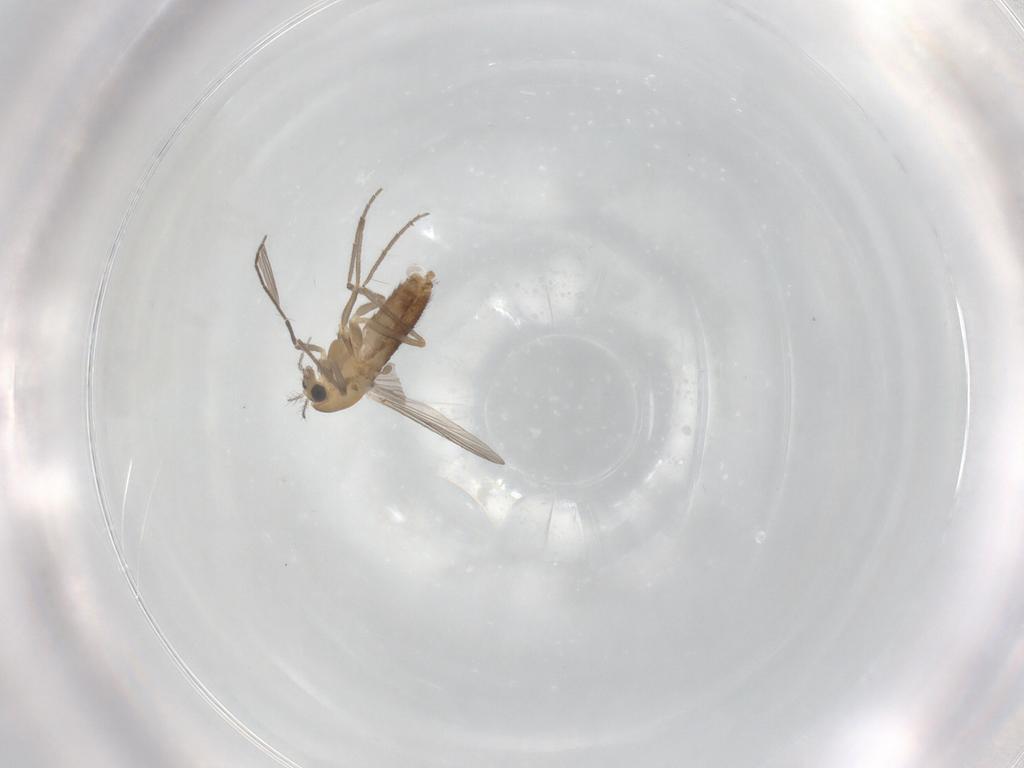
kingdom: Animalia
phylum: Arthropoda
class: Insecta
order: Diptera
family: Chironomidae
